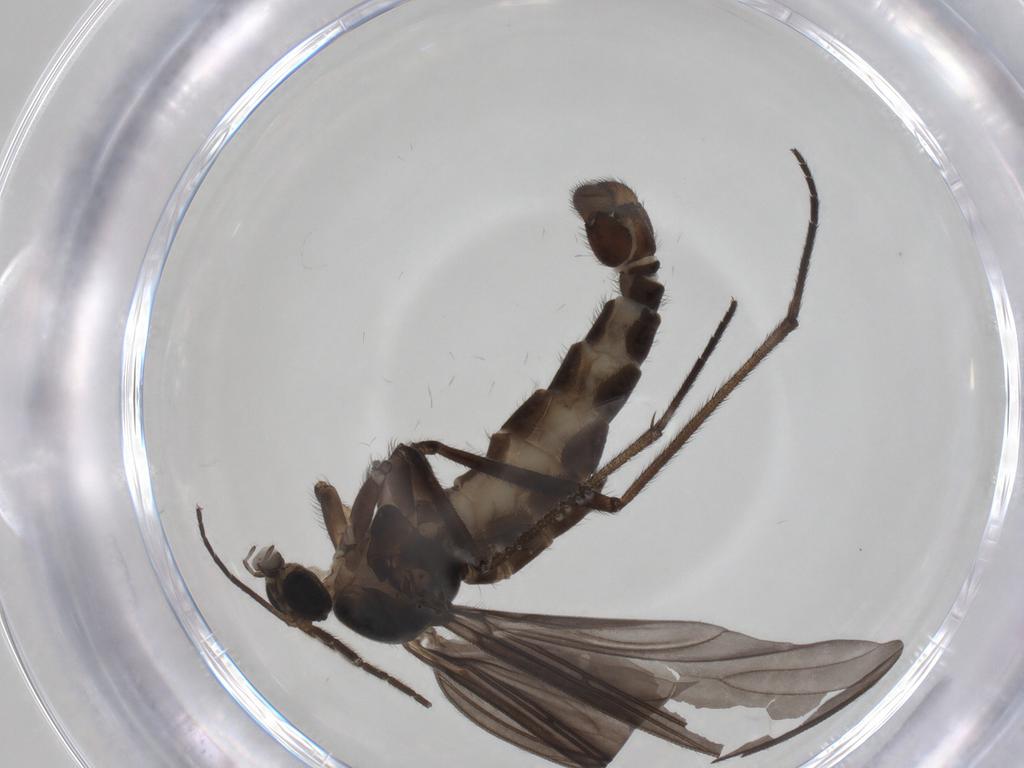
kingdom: Animalia
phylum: Arthropoda
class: Insecta
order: Diptera
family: Sciaridae
